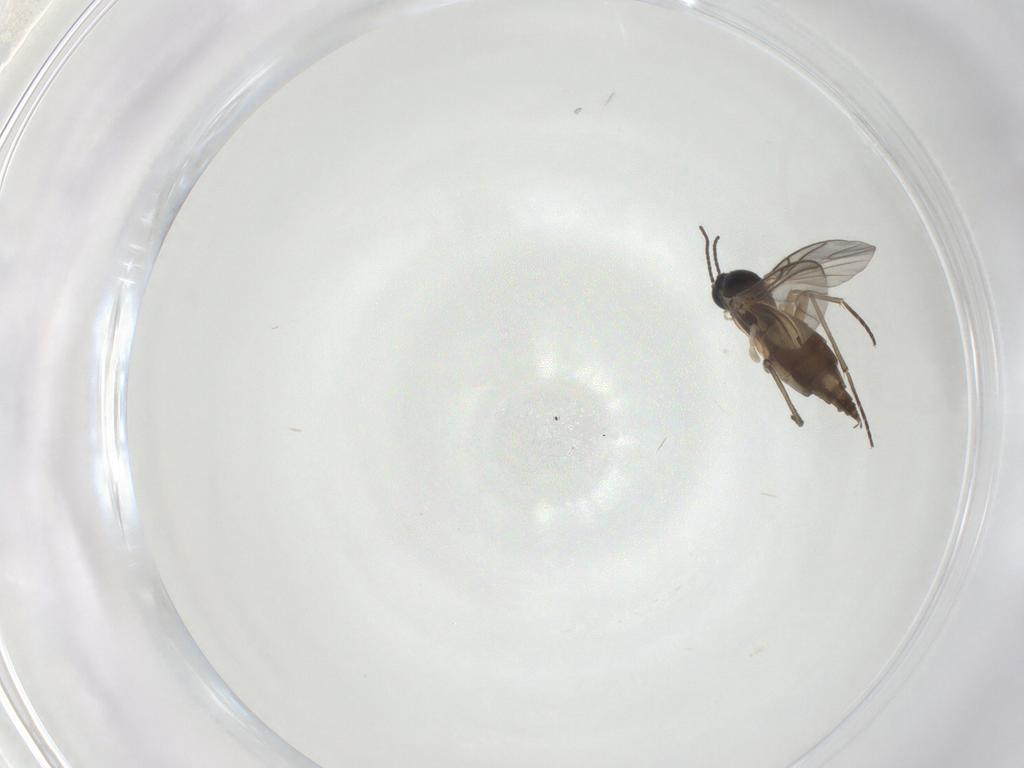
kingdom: Animalia
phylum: Arthropoda
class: Insecta
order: Diptera
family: Sciaridae
